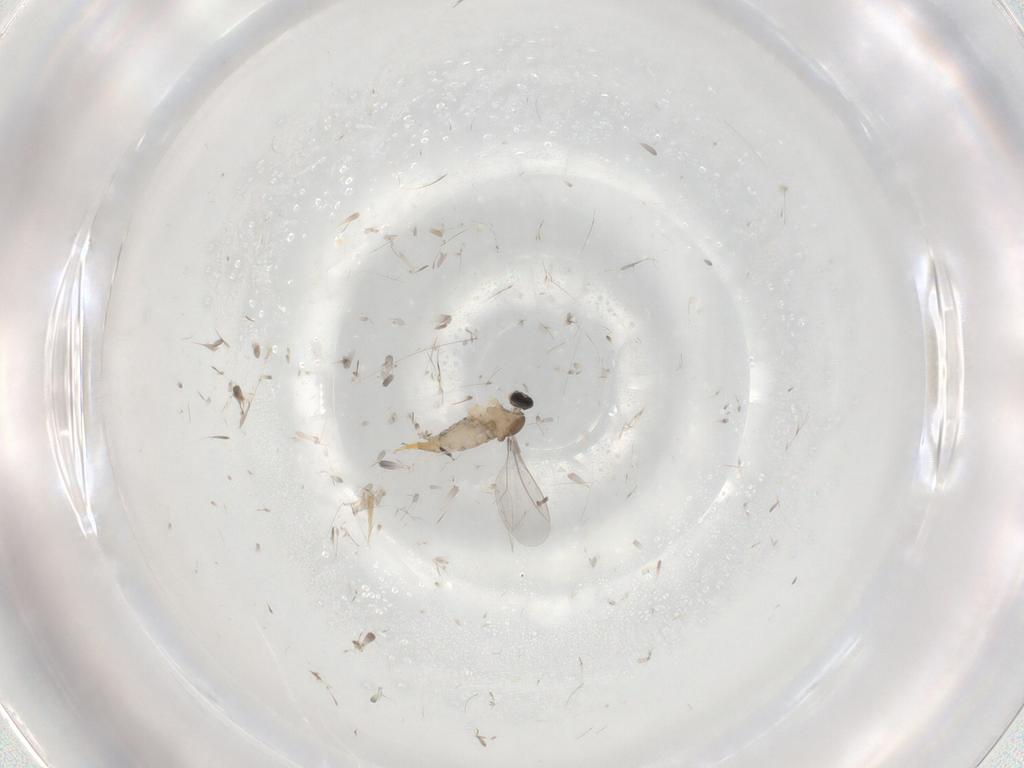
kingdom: Animalia
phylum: Arthropoda
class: Insecta
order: Diptera
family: Cecidomyiidae
